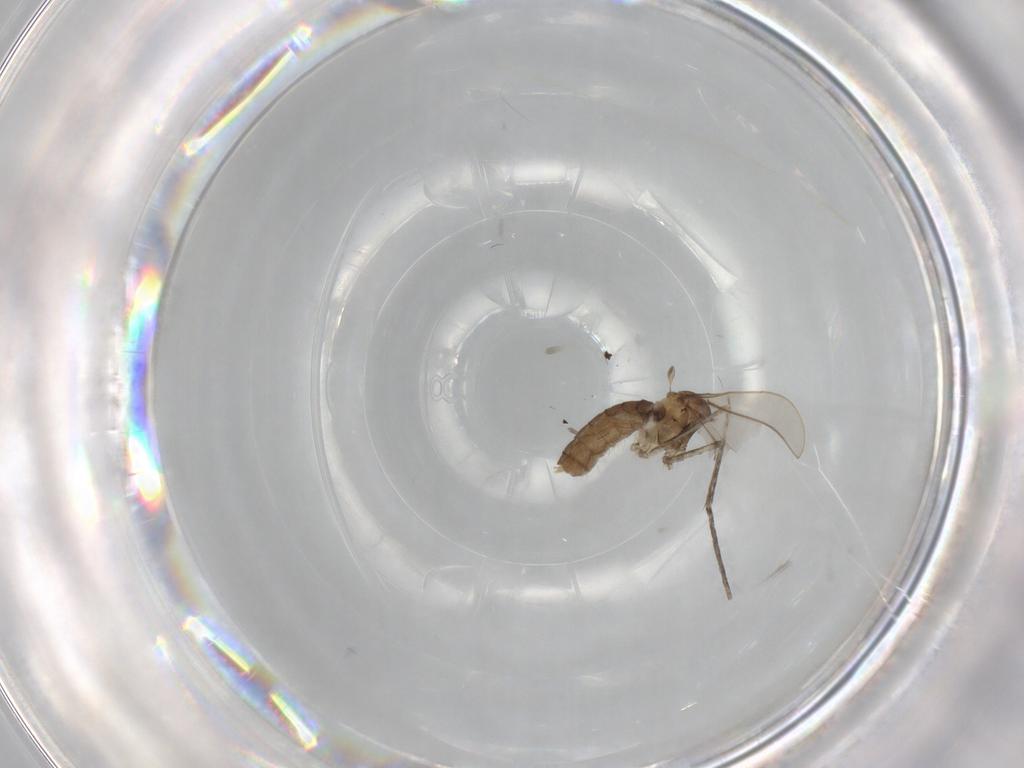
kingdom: Animalia
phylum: Arthropoda
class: Insecta
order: Diptera
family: Cecidomyiidae
